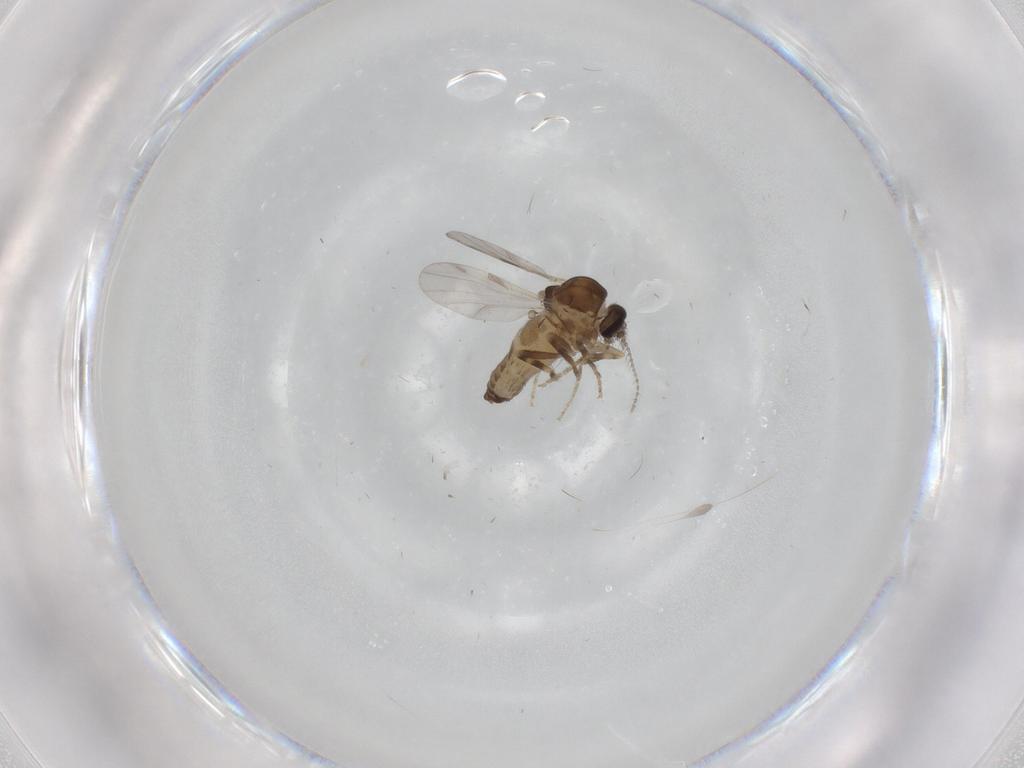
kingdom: Animalia
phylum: Arthropoda
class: Insecta
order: Diptera
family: Ceratopogonidae
